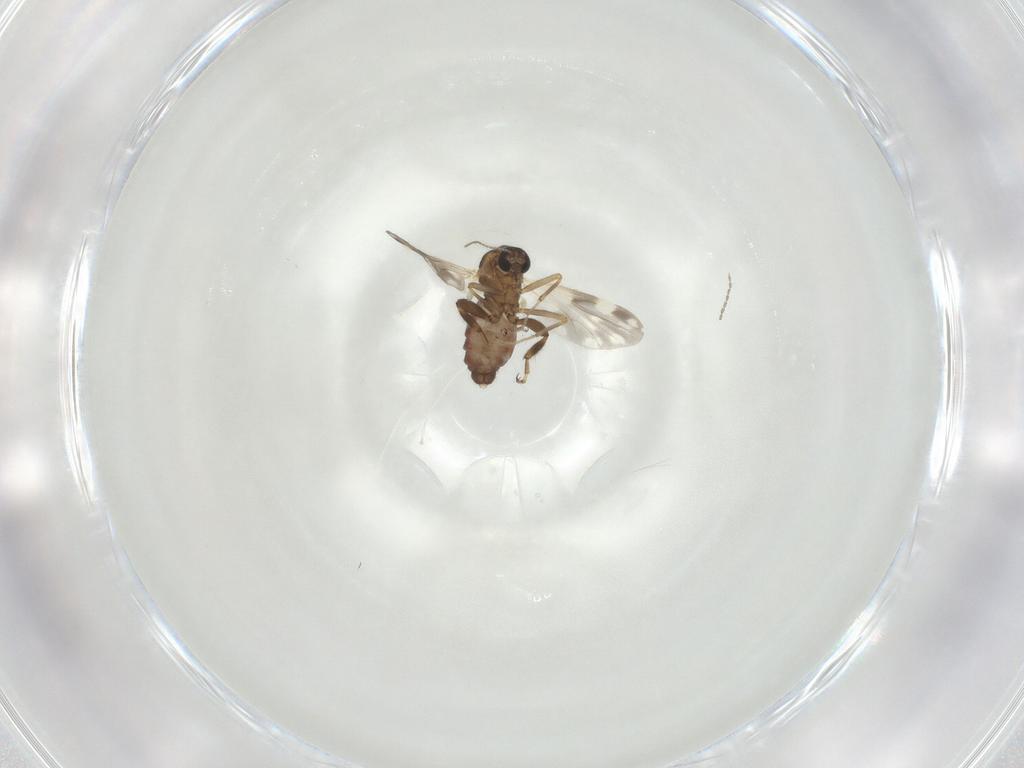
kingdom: Animalia
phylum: Arthropoda
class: Insecta
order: Diptera
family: Ceratopogonidae
